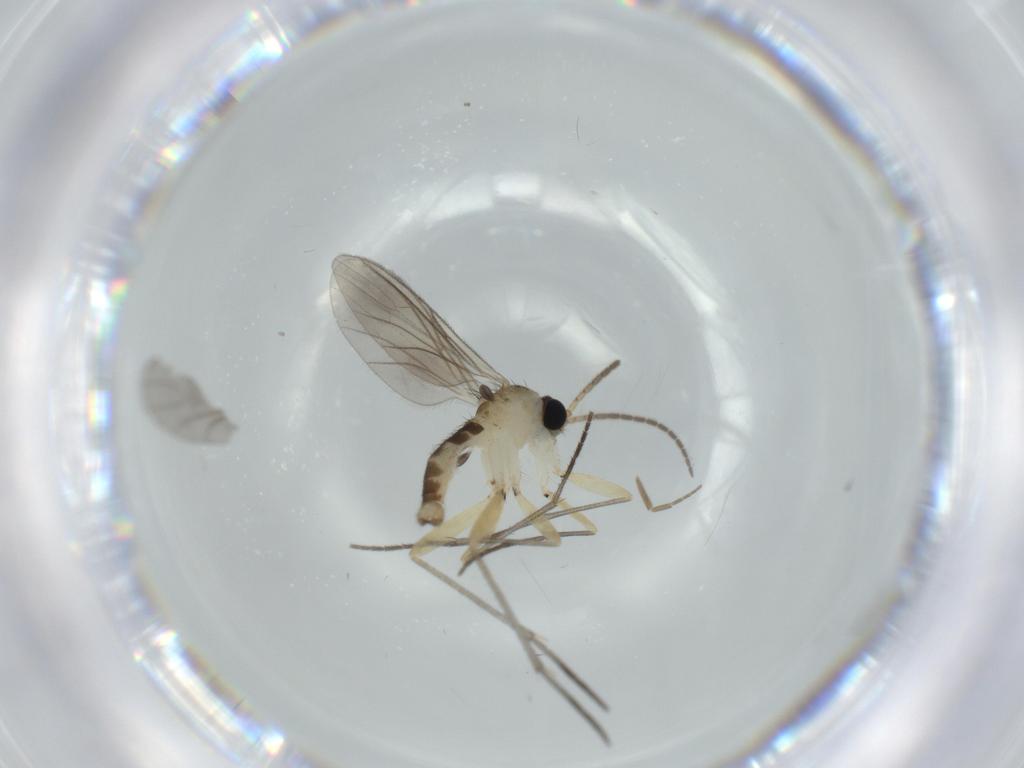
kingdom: Animalia
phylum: Arthropoda
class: Insecta
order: Diptera
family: Sciaridae
